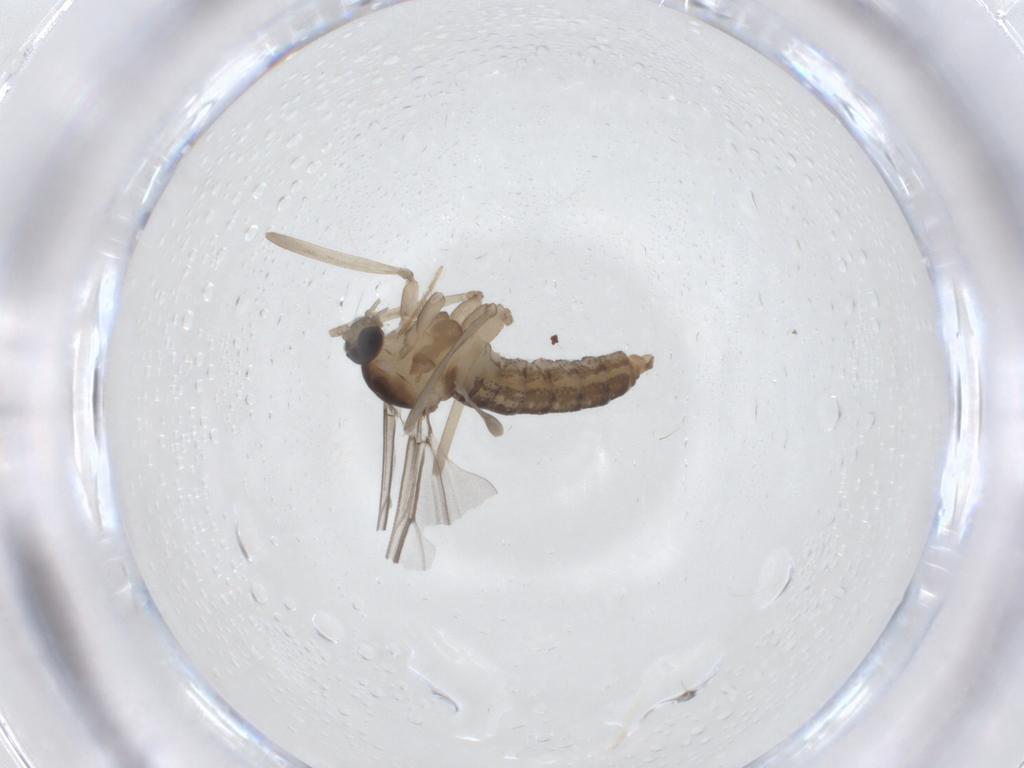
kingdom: Animalia
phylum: Arthropoda
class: Insecta
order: Diptera
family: Cecidomyiidae
